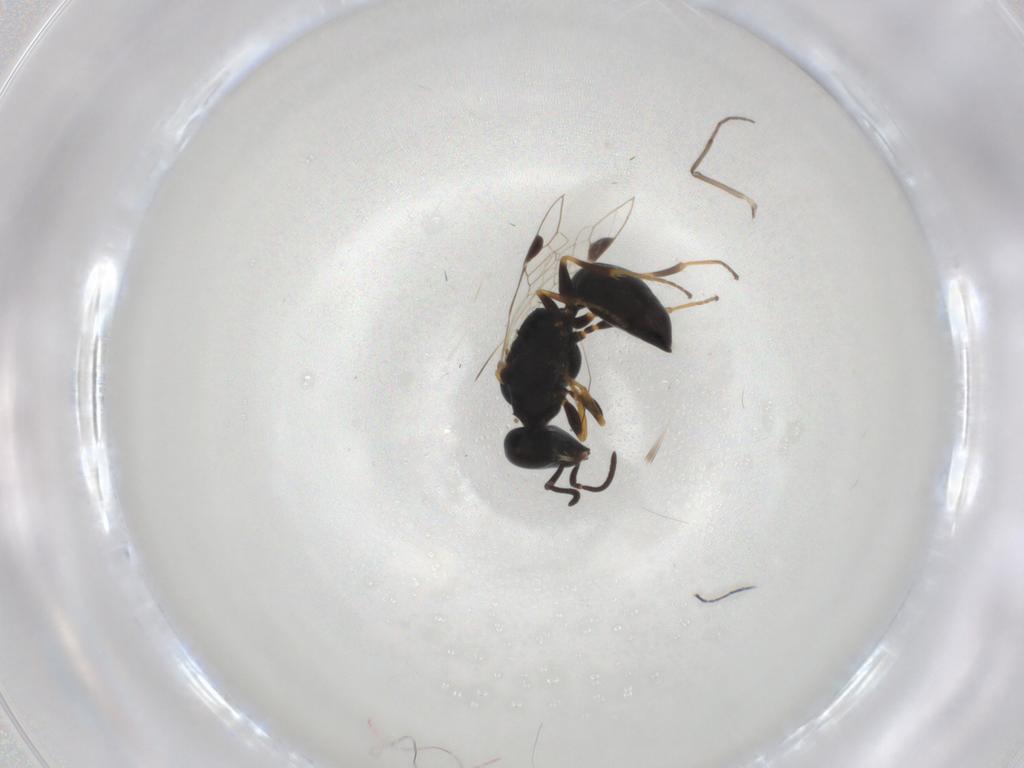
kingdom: Animalia
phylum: Arthropoda
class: Insecta
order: Hymenoptera
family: Crabronidae
